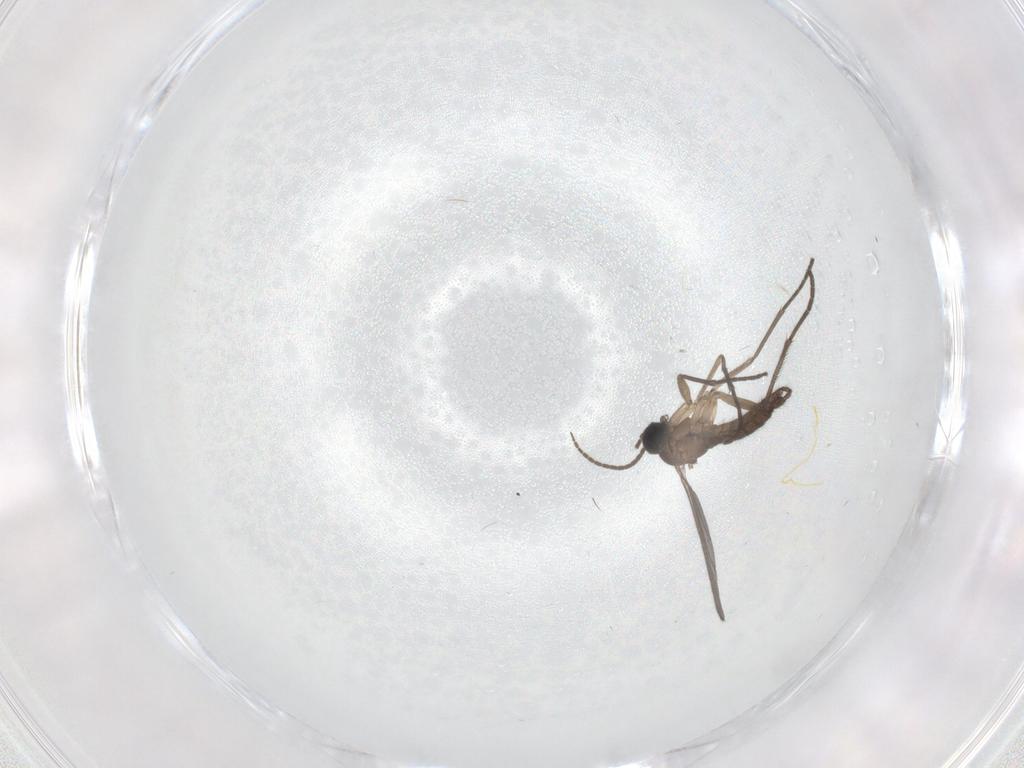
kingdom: Animalia
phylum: Arthropoda
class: Insecta
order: Diptera
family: Sciaridae
